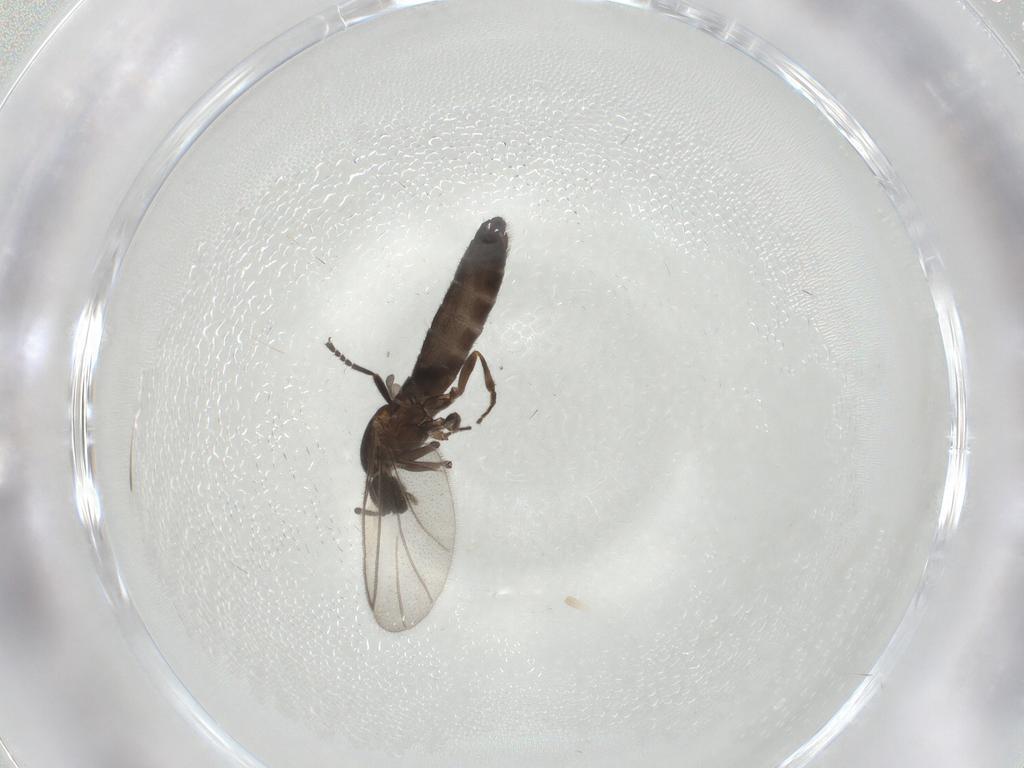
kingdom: Animalia
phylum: Arthropoda
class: Insecta
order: Diptera
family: Scatopsidae
